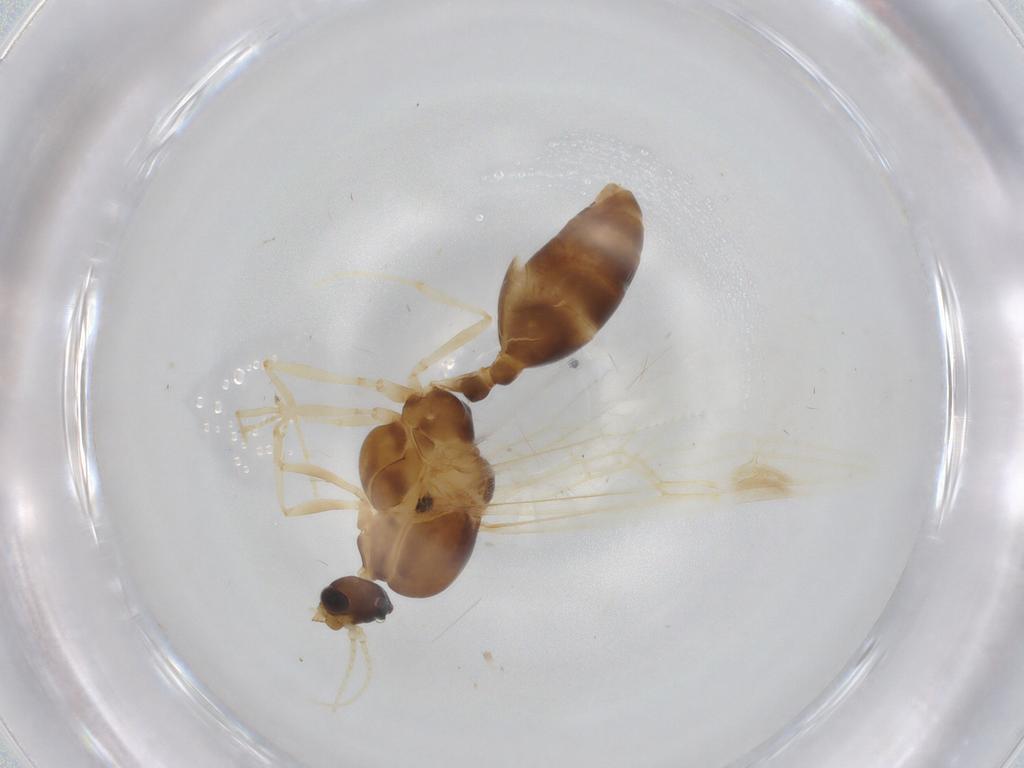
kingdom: Animalia
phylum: Arthropoda
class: Insecta
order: Hymenoptera
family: Formicidae
